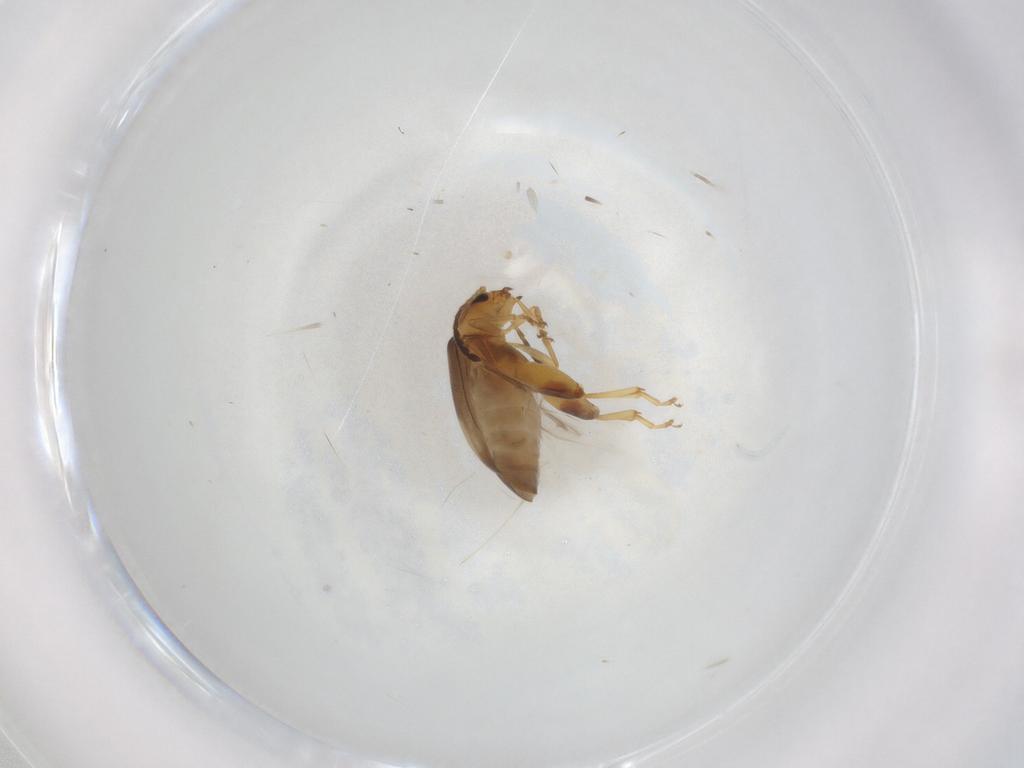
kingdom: Animalia
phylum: Arthropoda
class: Insecta
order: Coleoptera
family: Chrysomelidae
